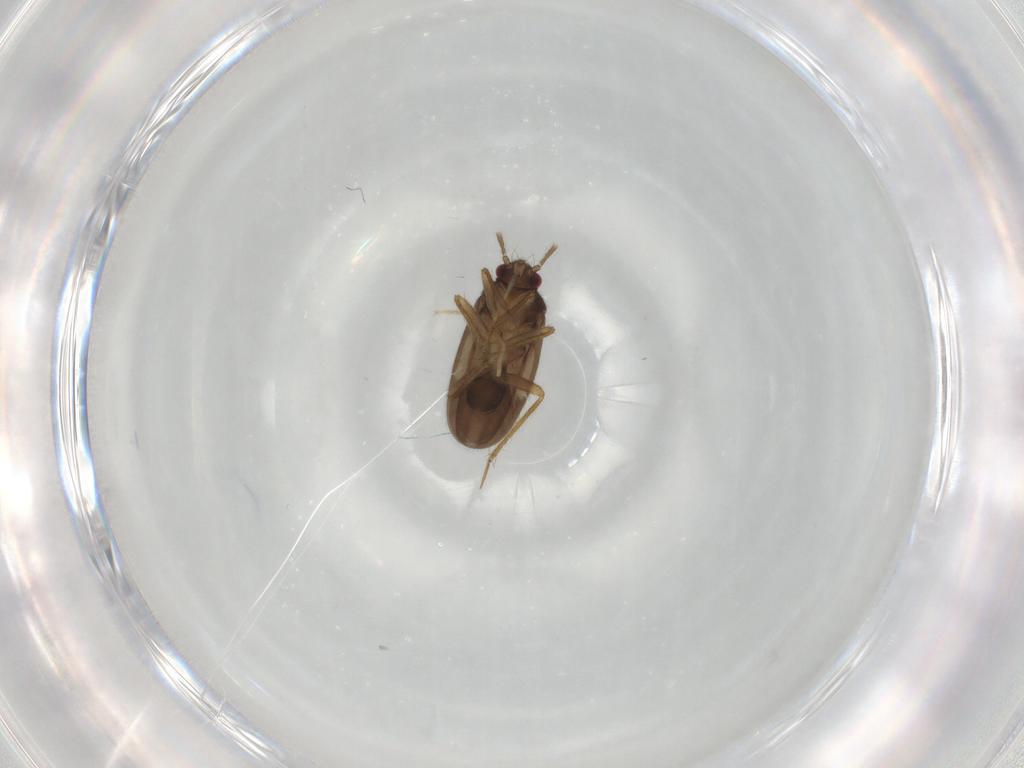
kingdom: Animalia
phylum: Arthropoda
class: Insecta
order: Hemiptera
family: Ceratocombidae
